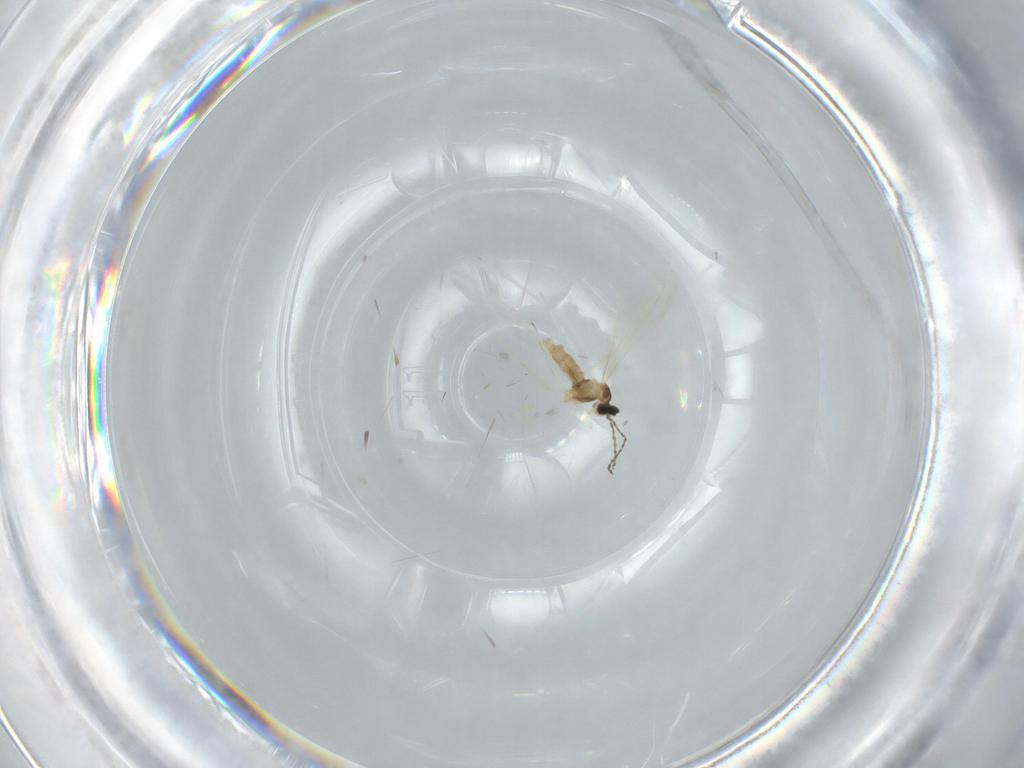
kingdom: Animalia
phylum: Arthropoda
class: Insecta
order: Diptera
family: Cecidomyiidae
